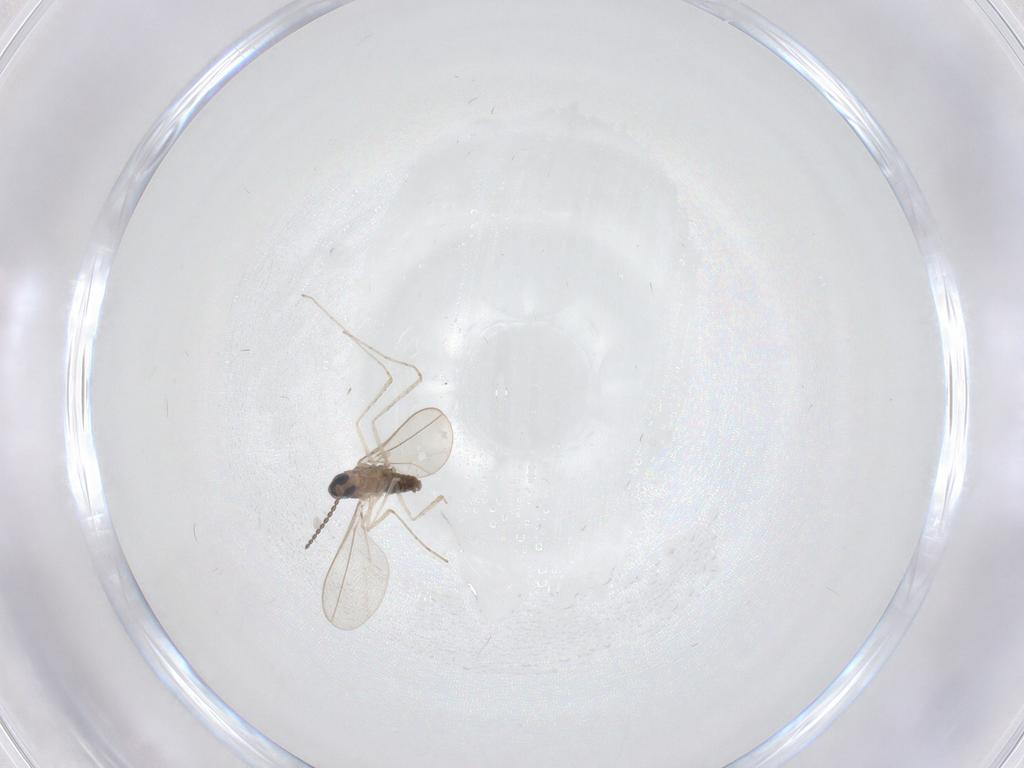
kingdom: Animalia
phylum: Arthropoda
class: Insecta
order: Diptera
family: Cecidomyiidae
